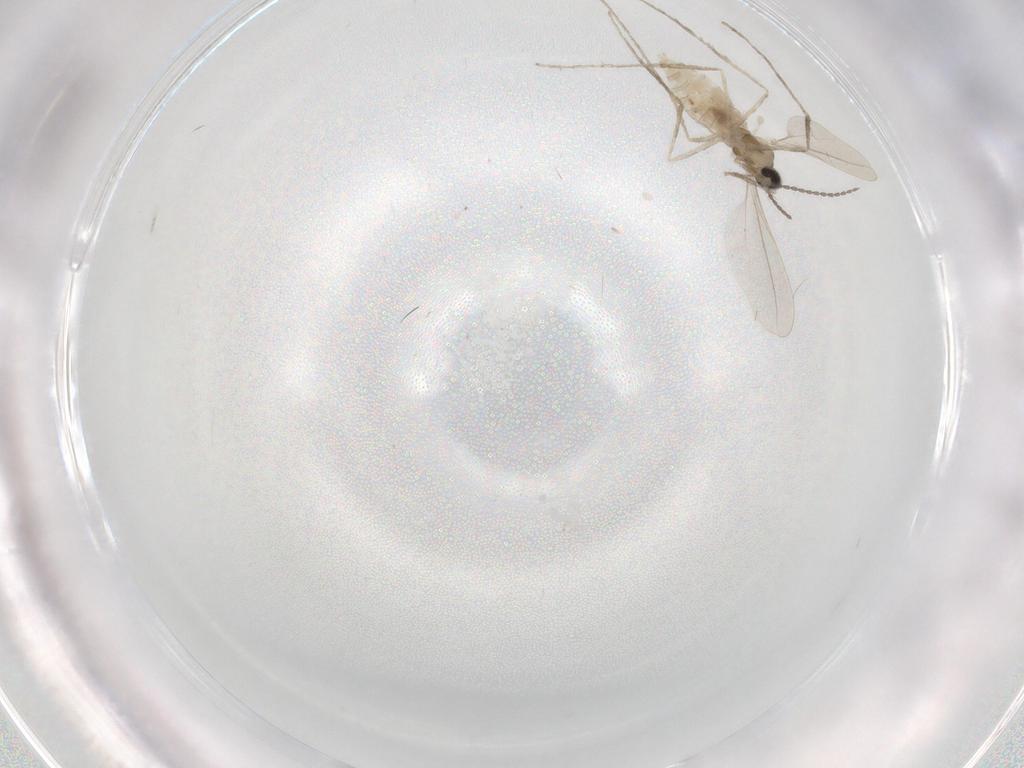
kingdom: Animalia
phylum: Arthropoda
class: Insecta
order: Diptera
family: Cecidomyiidae
